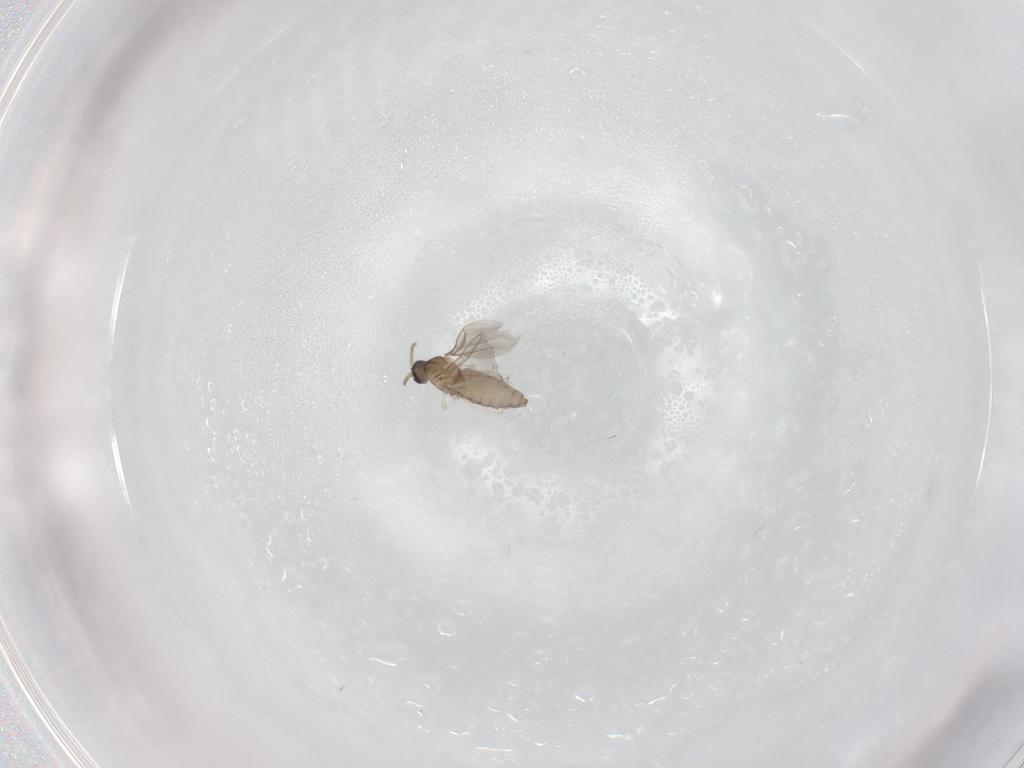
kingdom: Animalia
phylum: Arthropoda
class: Insecta
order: Diptera
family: Cecidomyiidae
